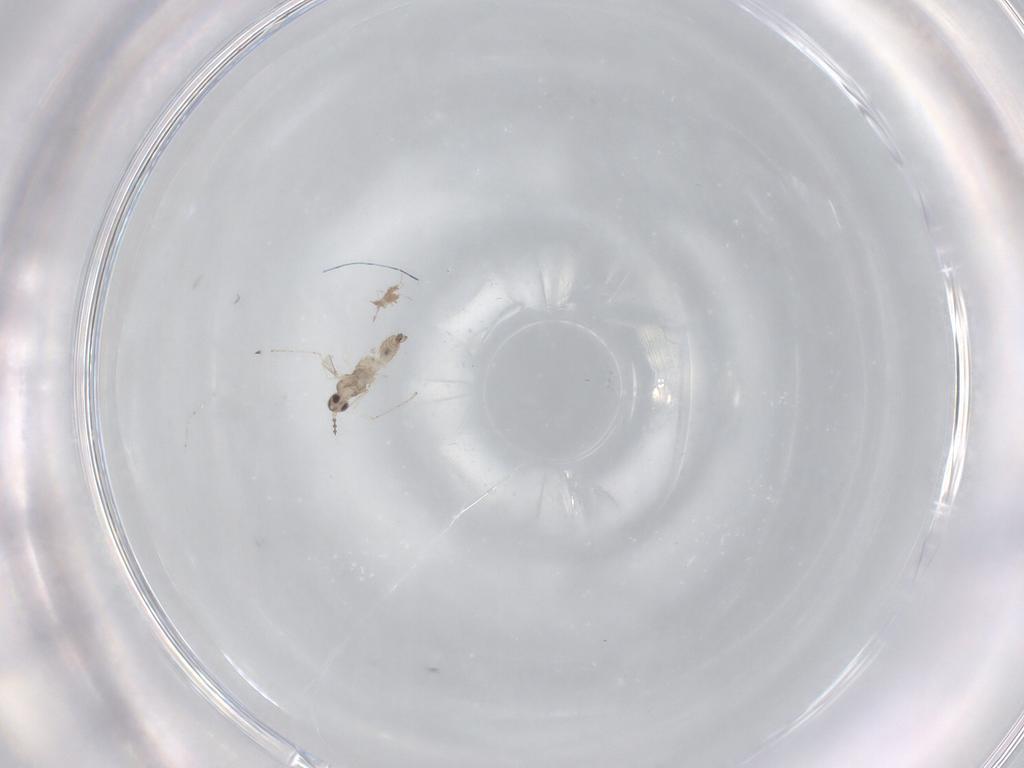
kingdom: Animalia
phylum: Arthropoda
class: Insecta
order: Diptera
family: Cecidomyiidae
